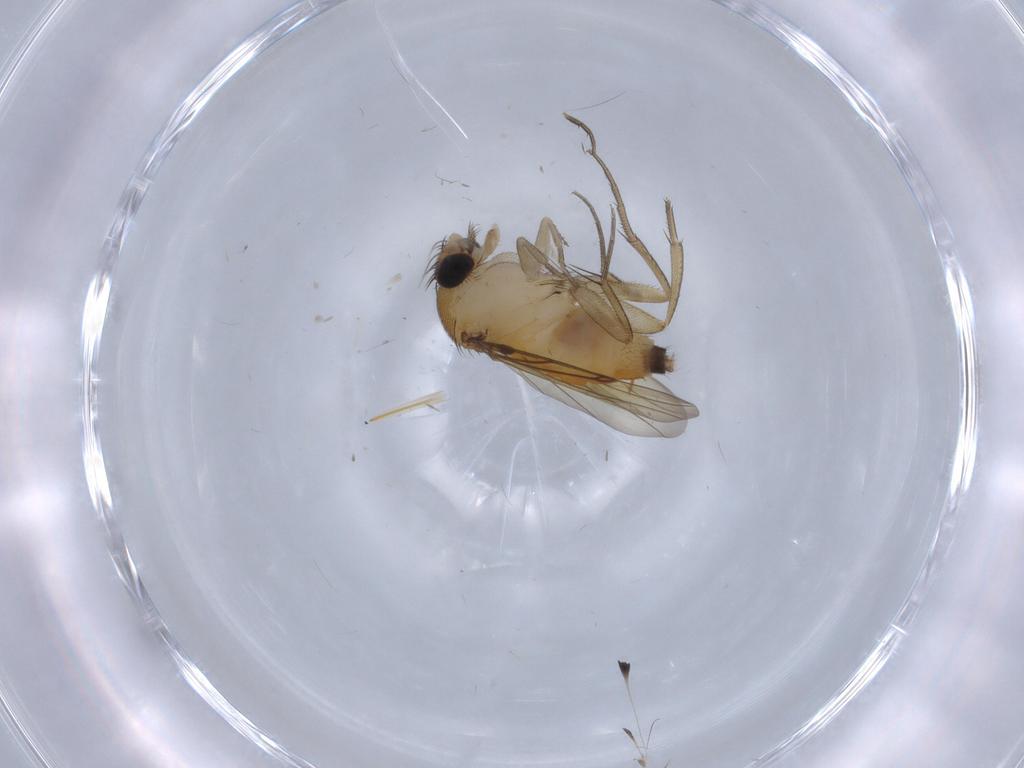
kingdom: Animalia
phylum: Arthropoda
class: Insecta
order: Diptera
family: Cecidomyiidae
